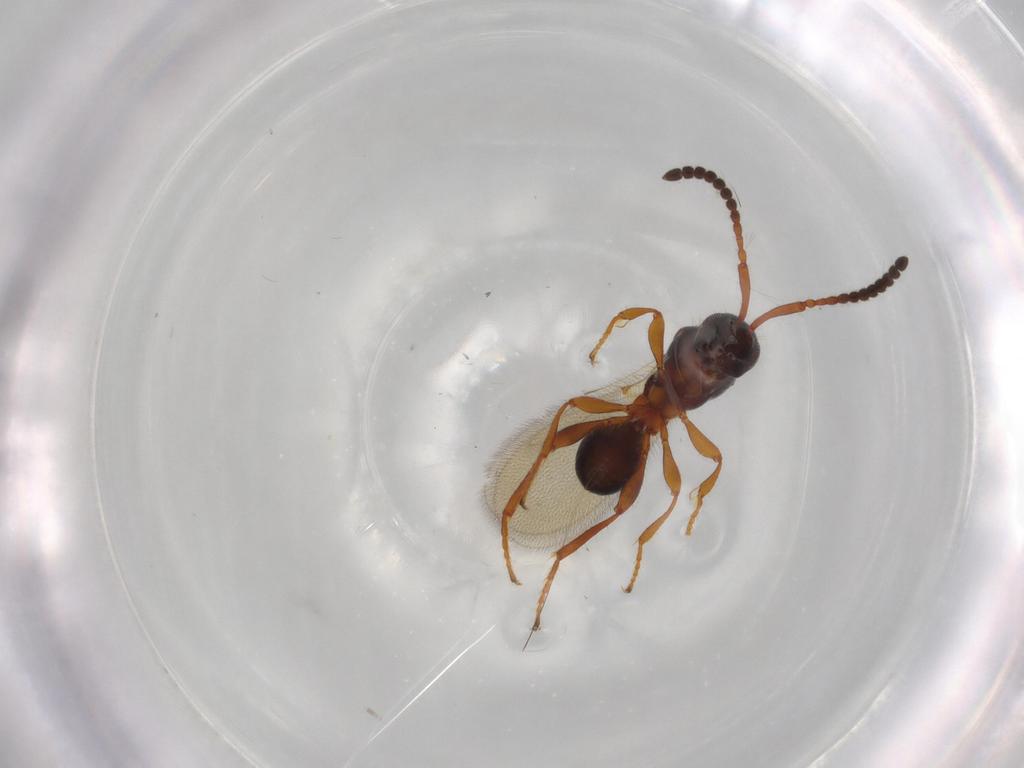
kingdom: Animalia
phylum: Arthropoda
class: Insecta
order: Hymenoptera
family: Diapriidae
